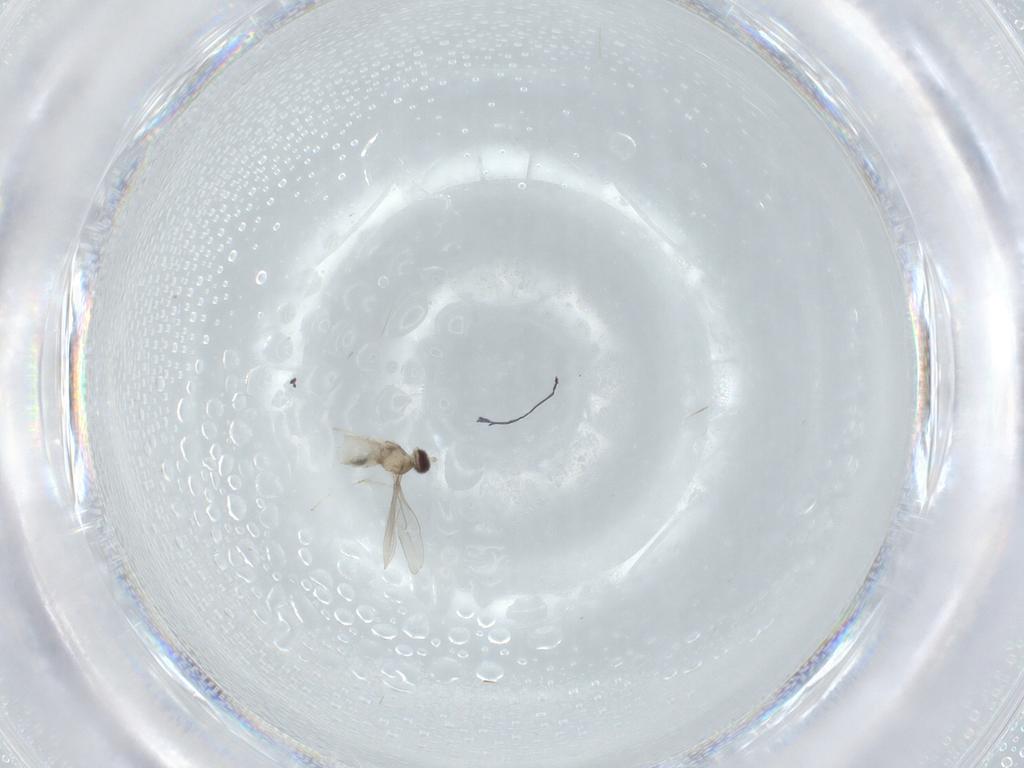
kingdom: Animalia
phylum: Arthropoda
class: Insecta
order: Diptera
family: Cecidomyiidae
